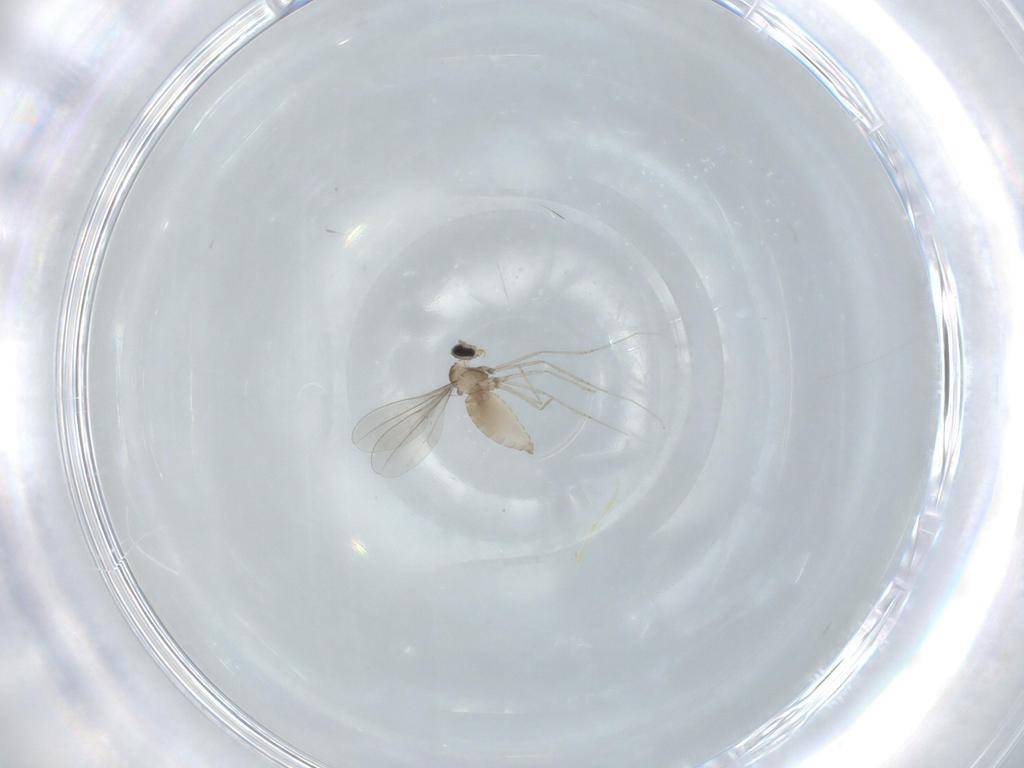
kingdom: Animalia
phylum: Arthropoda
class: Insecta
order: Diptera
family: Cecidomyiidae
